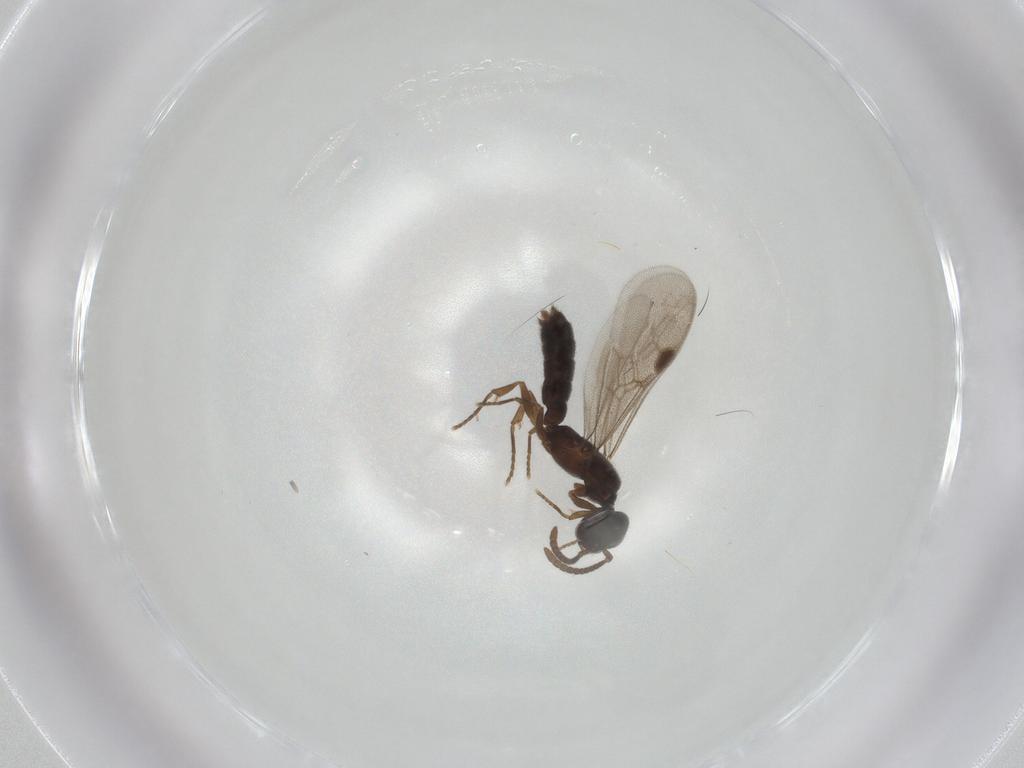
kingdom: Animalia
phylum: Arthropoda
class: Insecta
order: Hymenoptera
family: Formicidae
